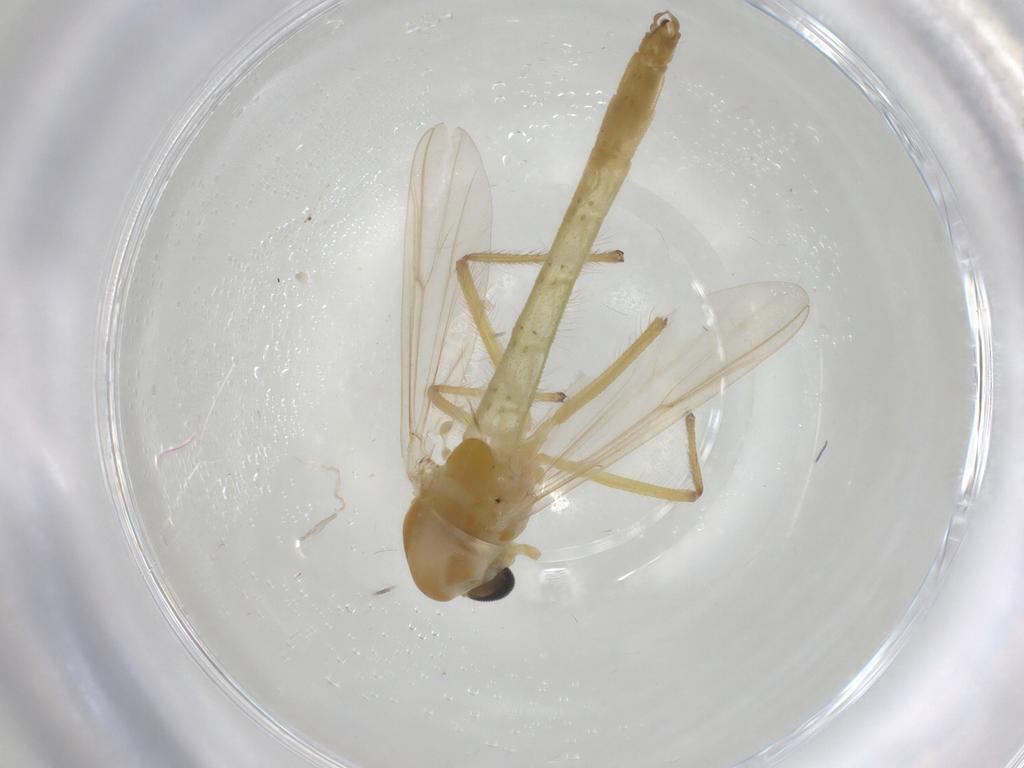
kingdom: Animalia
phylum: Arthropoda
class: Insecta
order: Diptera
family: Chironomidae
